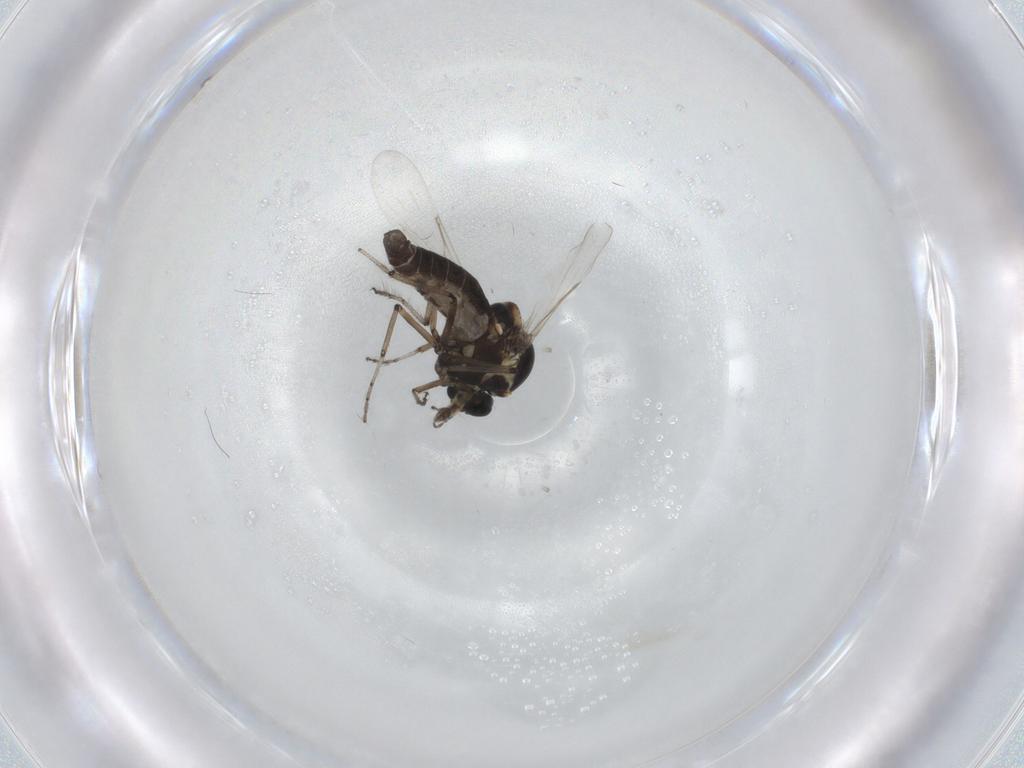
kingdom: Animalia
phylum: Arthropoda
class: Insecta
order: Diptera
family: Ceratopogonidae
